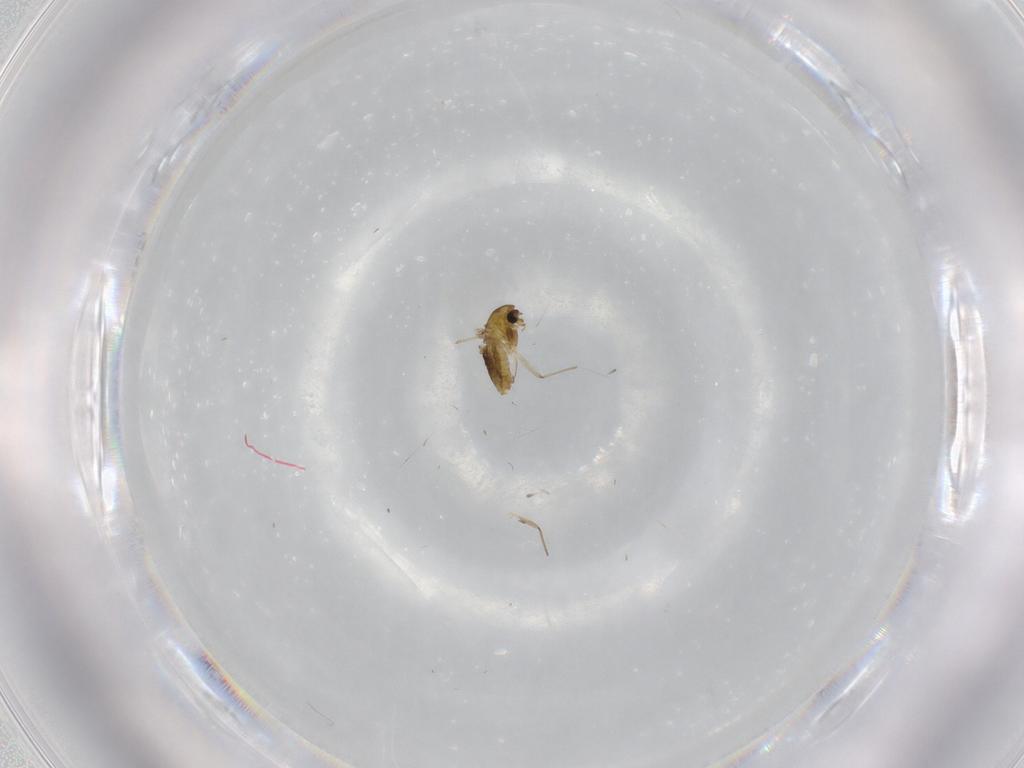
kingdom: Animalia
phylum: Arthropoda
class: Insecta
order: Diptera
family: Chironomidae
